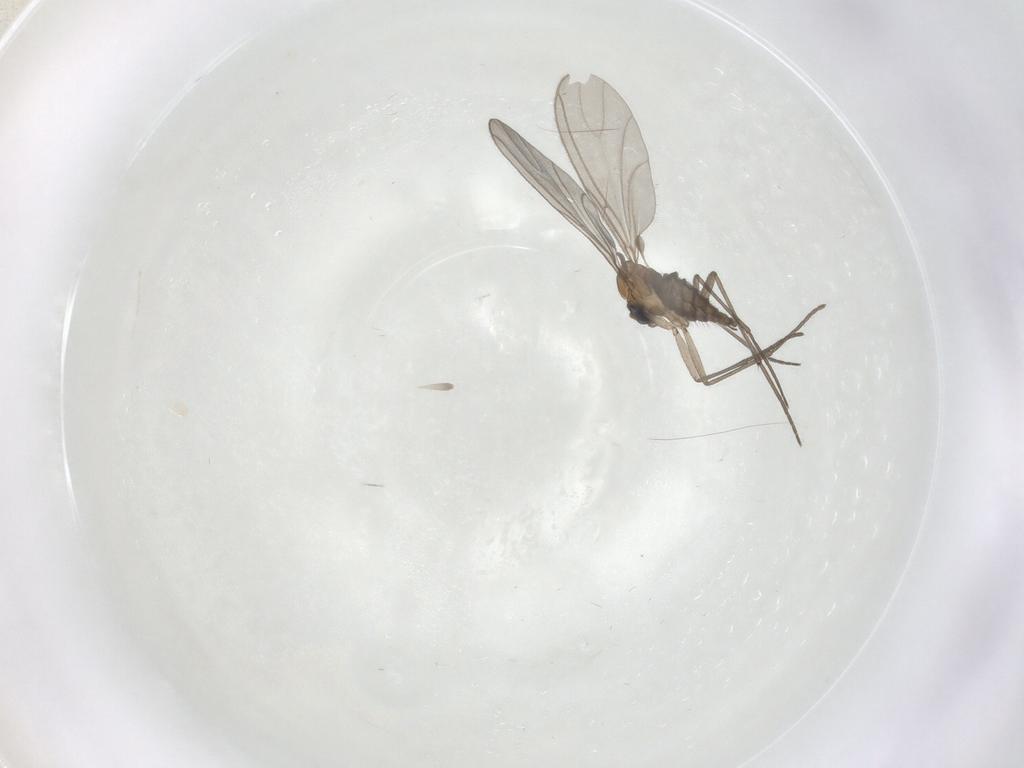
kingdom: Animalia
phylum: Arthropoda
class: Insecta
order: Diptera
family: Sciaridae
